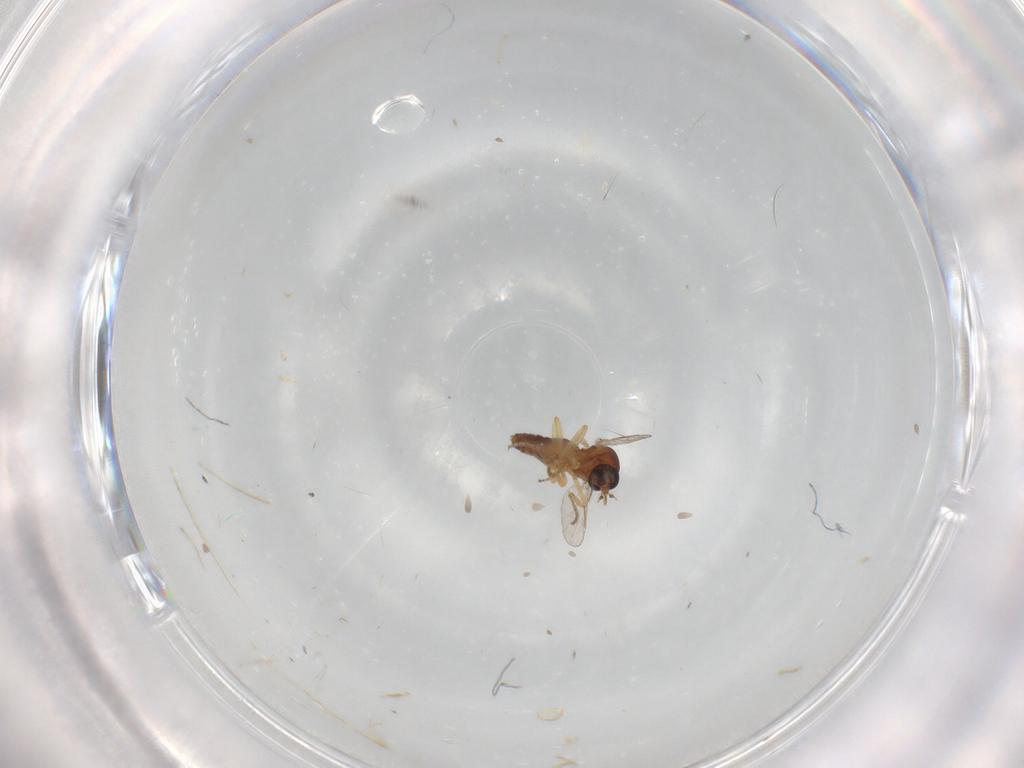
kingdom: Animalia
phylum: Arthropoda
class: Insecta
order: Diptera
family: Ceratopogonidae
